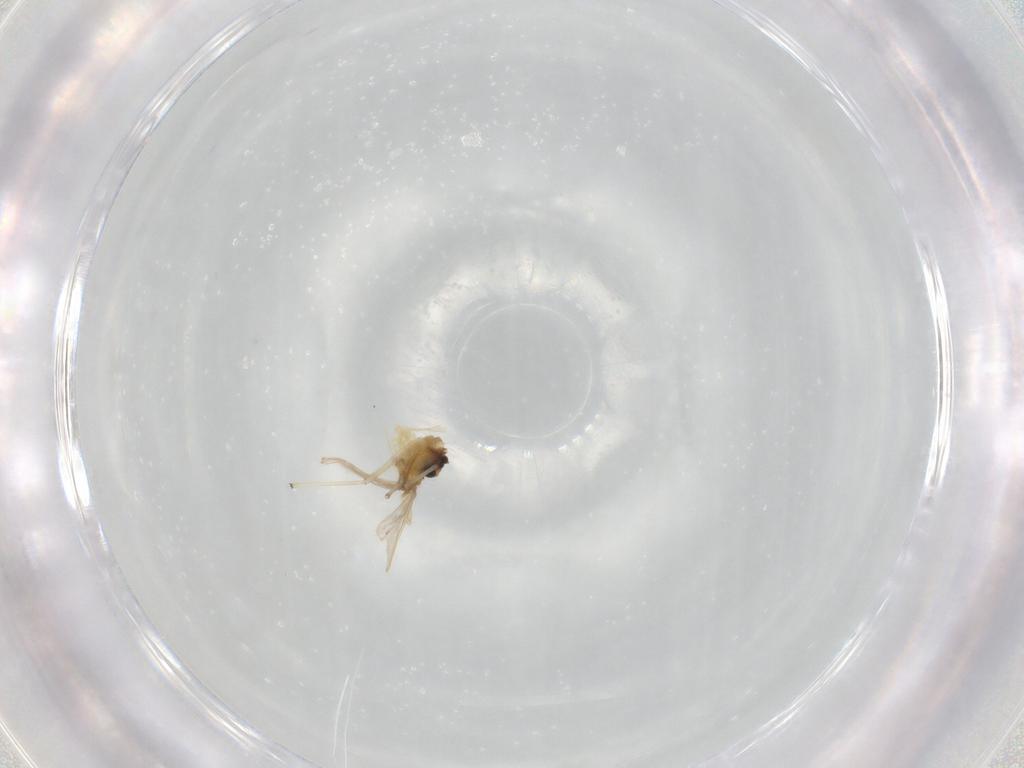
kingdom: Animalia
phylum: Arthropoda
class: Insecta
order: Diptera
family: Chironomidae
